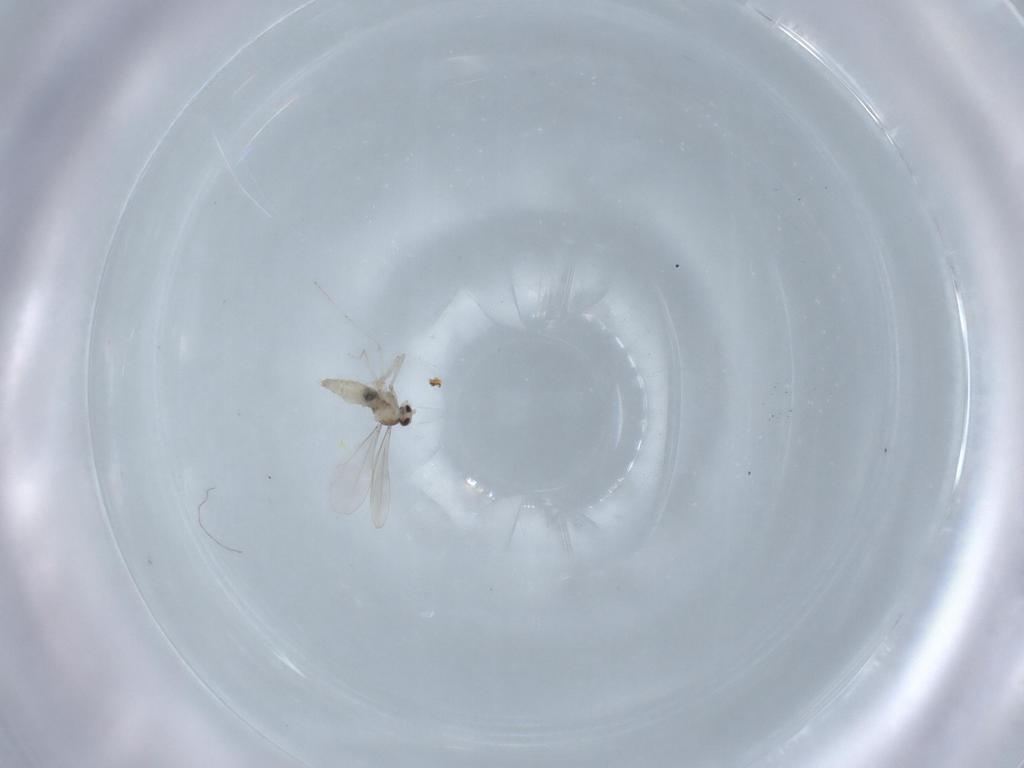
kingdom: Animalia
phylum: Arthropoda
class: Insecta
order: Diptera
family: Cecidomyiidae
